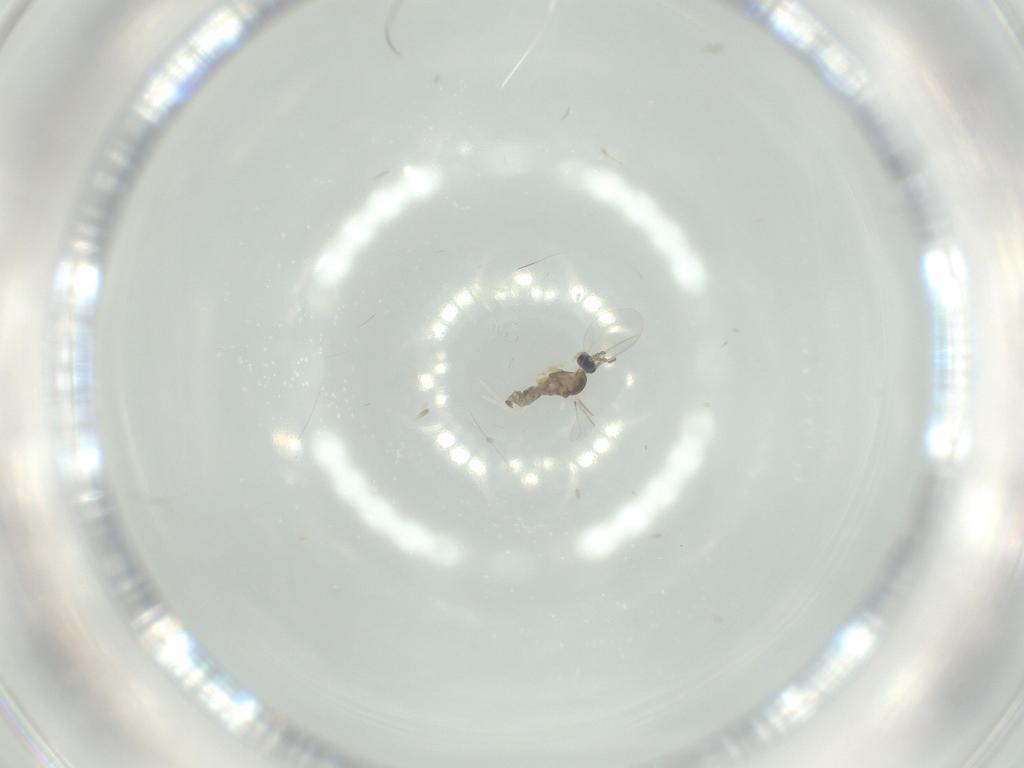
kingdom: Animalia
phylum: Arthropoda
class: Insecta
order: Diptera
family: Cecidomyiidae
